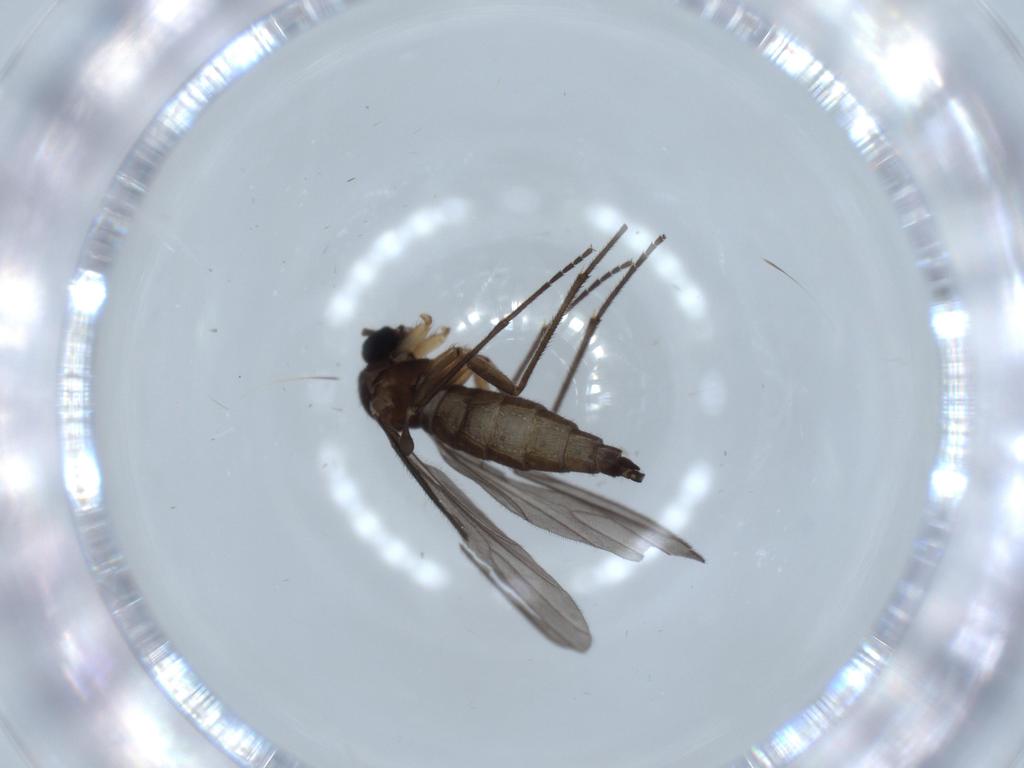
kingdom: Animalia
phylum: Arthropoda
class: Insecta
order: Diptera
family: Sciaridae
